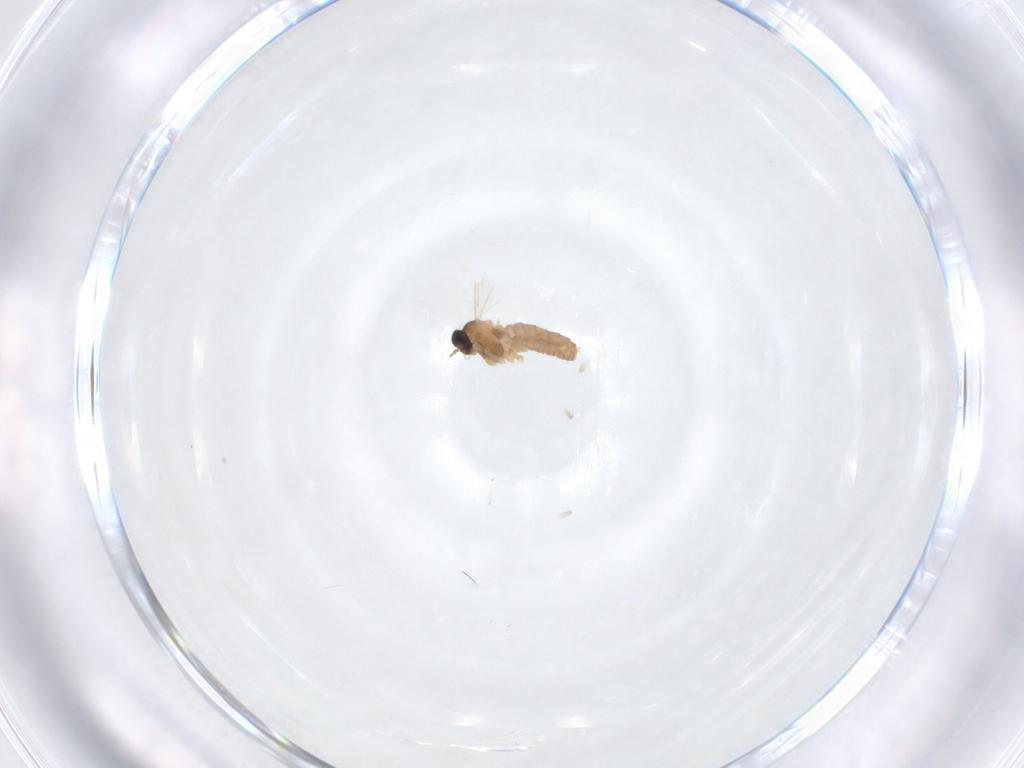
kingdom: Animalia
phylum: Arthropoda
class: Insecta
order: Diptera
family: Cecidomyiidae
